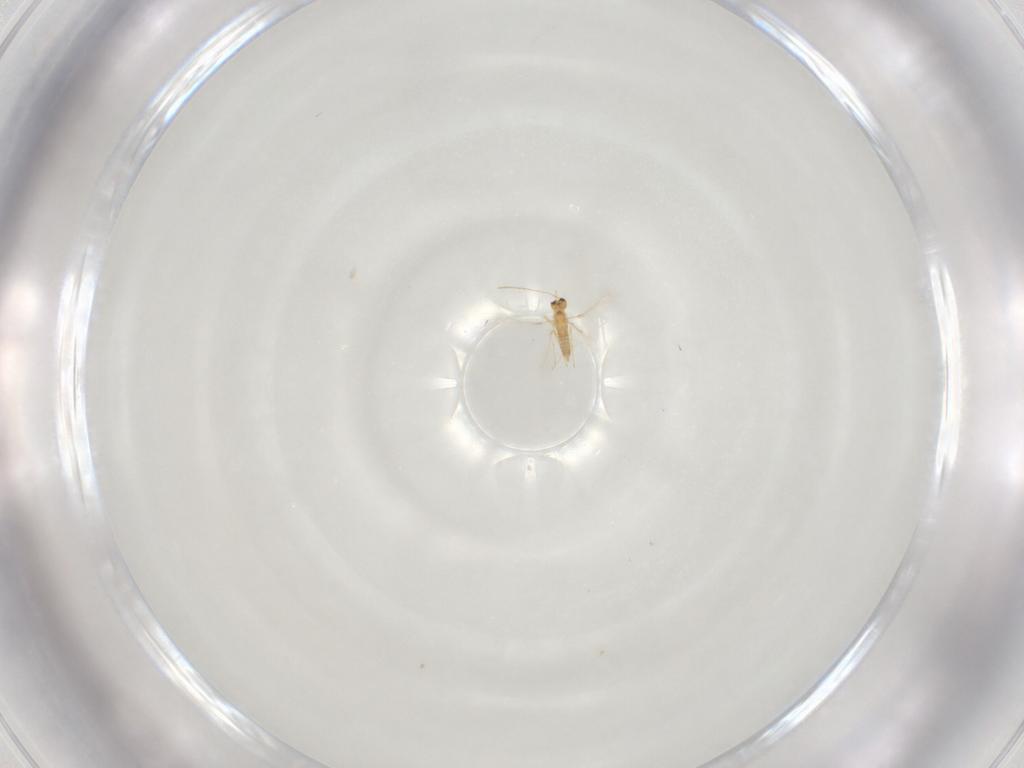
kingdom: Animalia
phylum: Arthropoda
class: Insecta
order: Hymenoptera
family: Mymaridae
